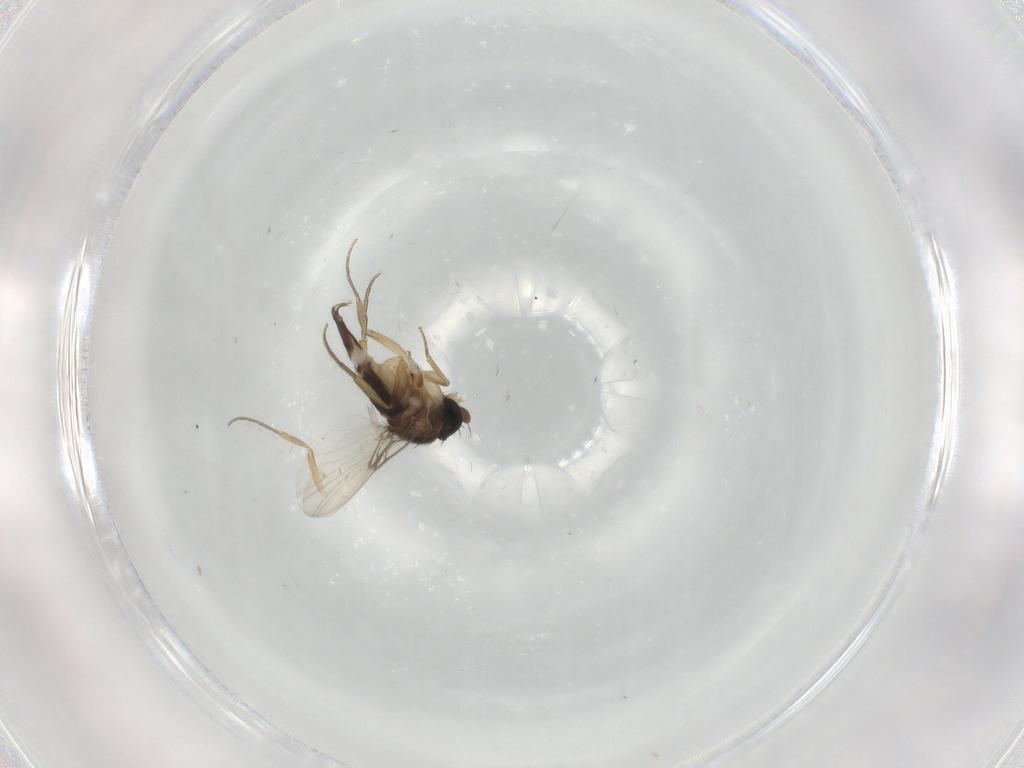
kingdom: Animalia
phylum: Arthropoda
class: Insecta
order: Diptera
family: Phoridae
